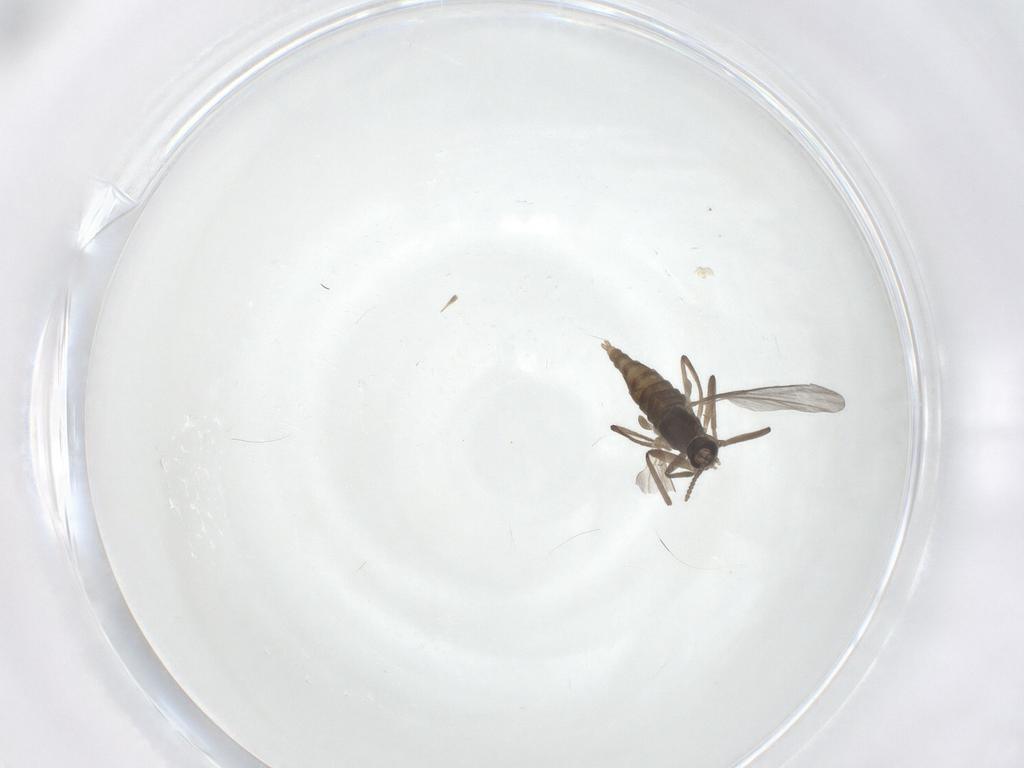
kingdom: Animalia
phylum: Arthropoda
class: Insecta
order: Diptera
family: Cecidomyiidae
